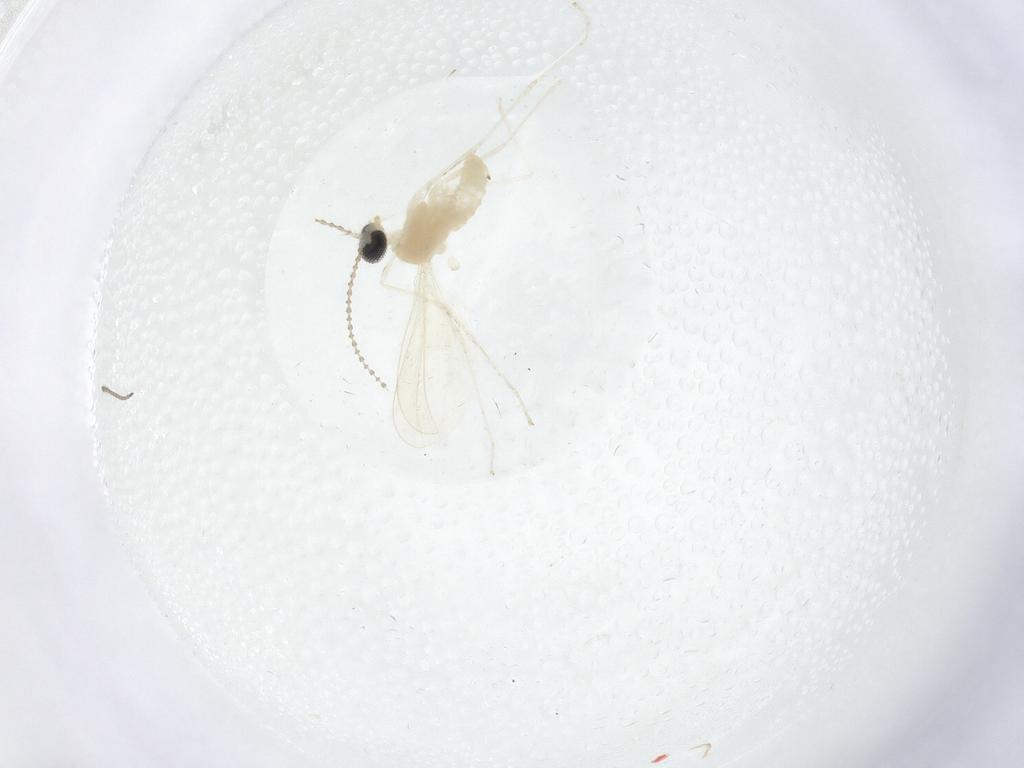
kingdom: Animalia
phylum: Arthropoda
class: Insecta
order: Diptera
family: Cecidomyiidae
